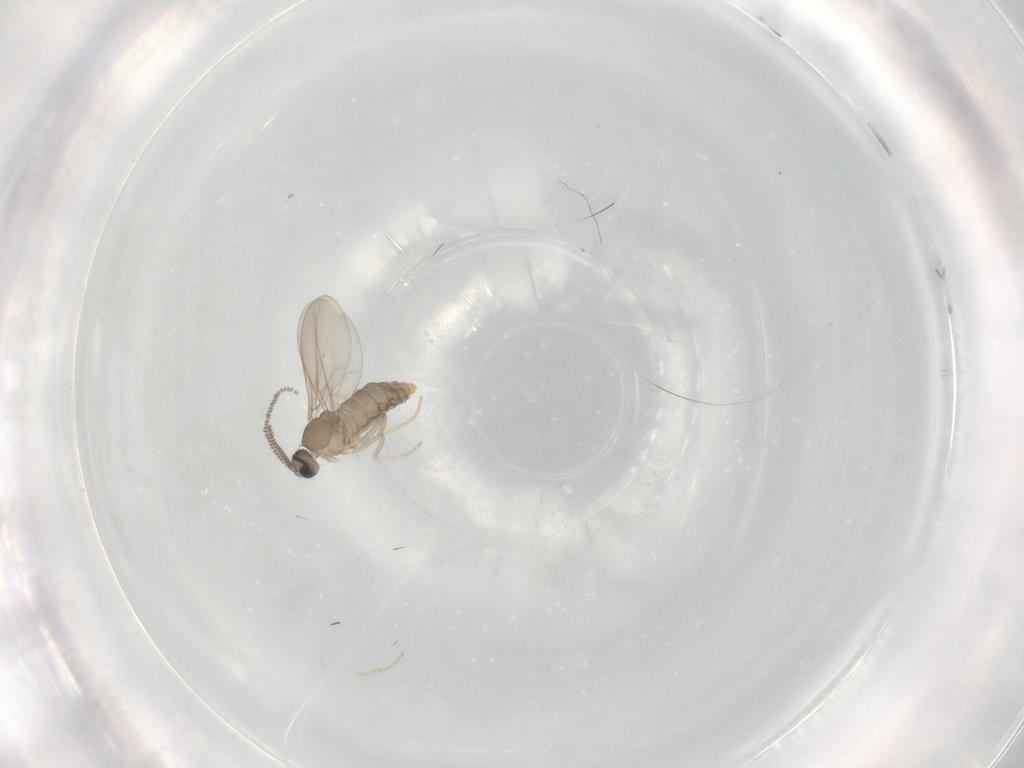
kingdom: Animalia
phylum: Arthropoda
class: Insecta
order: Diptera
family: Cecidomyiidae
